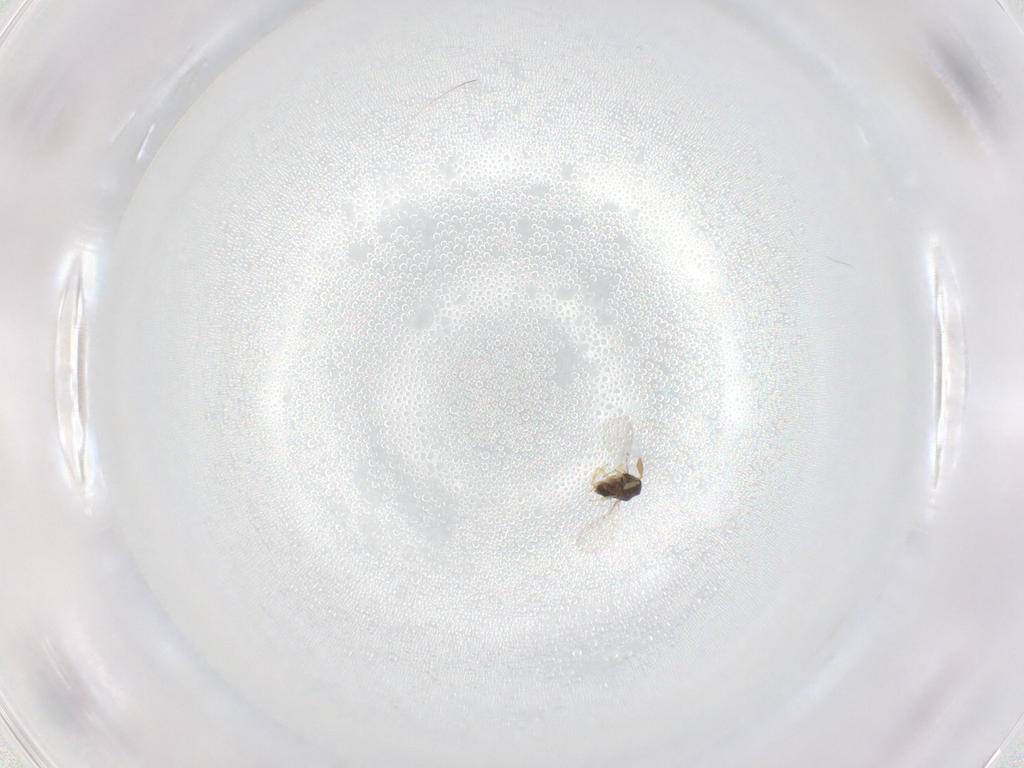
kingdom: Animalia
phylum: Arthropoda
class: Insecta
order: Hymenoptera
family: Encyrtidae
